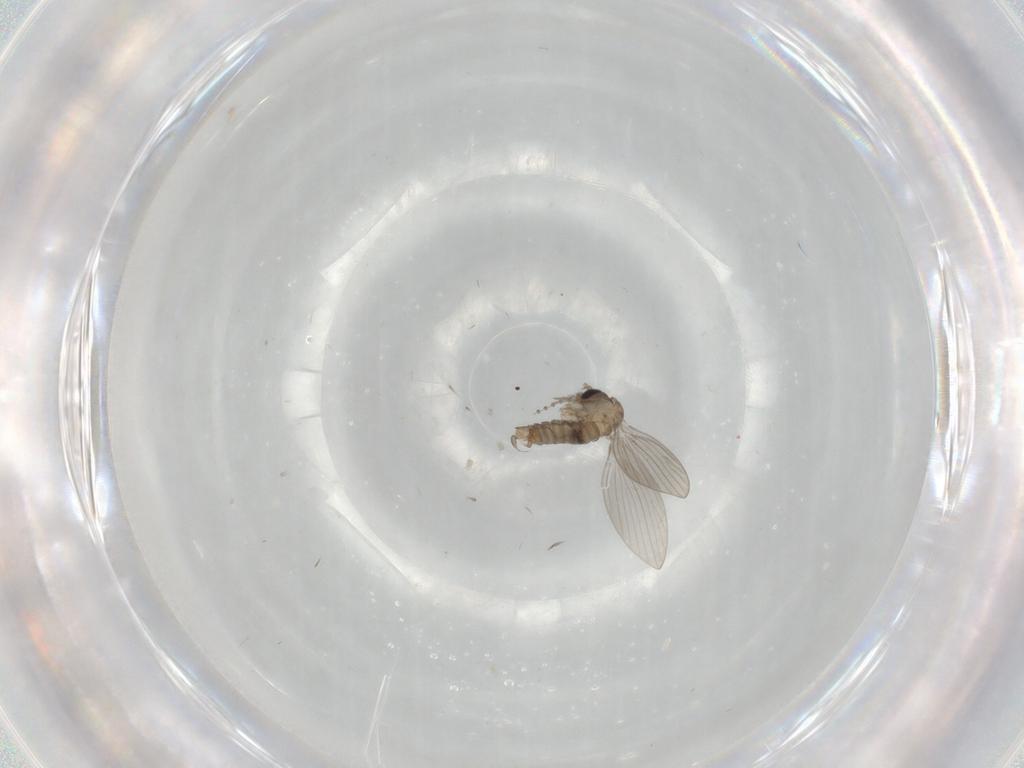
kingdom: Animalia
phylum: Arthropoda
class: Insecta
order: Diptera
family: Psychodidae
